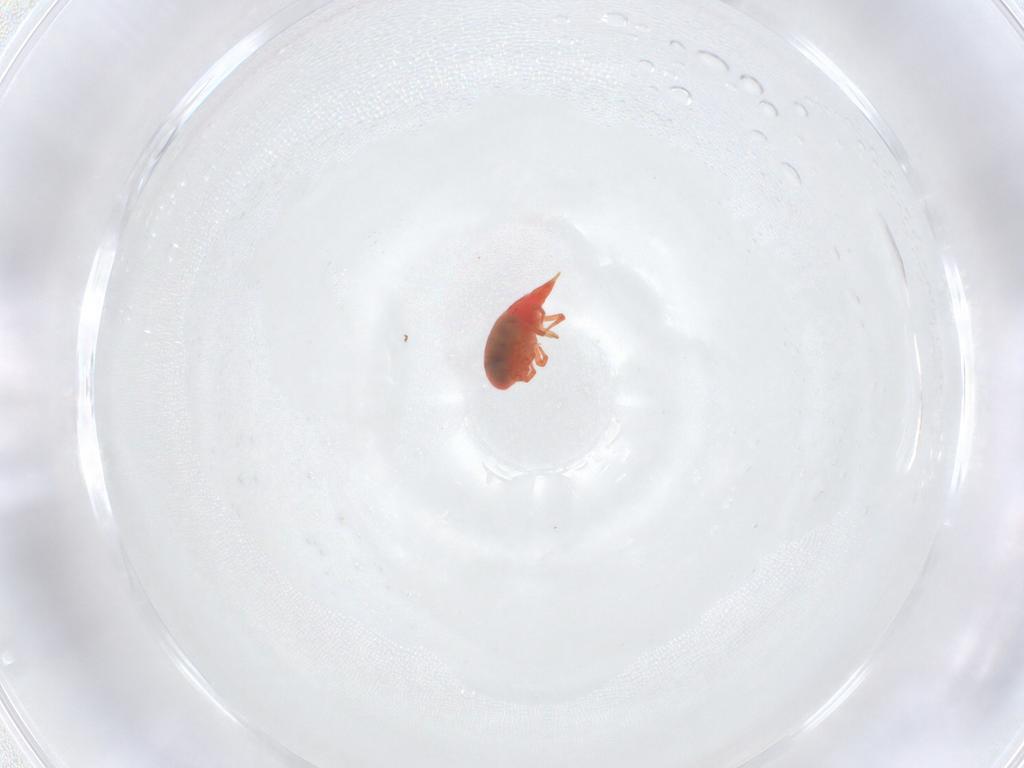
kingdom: Animalia
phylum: Arthropoda
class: Arachnida
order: Trombidiformes
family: Bdellidae
